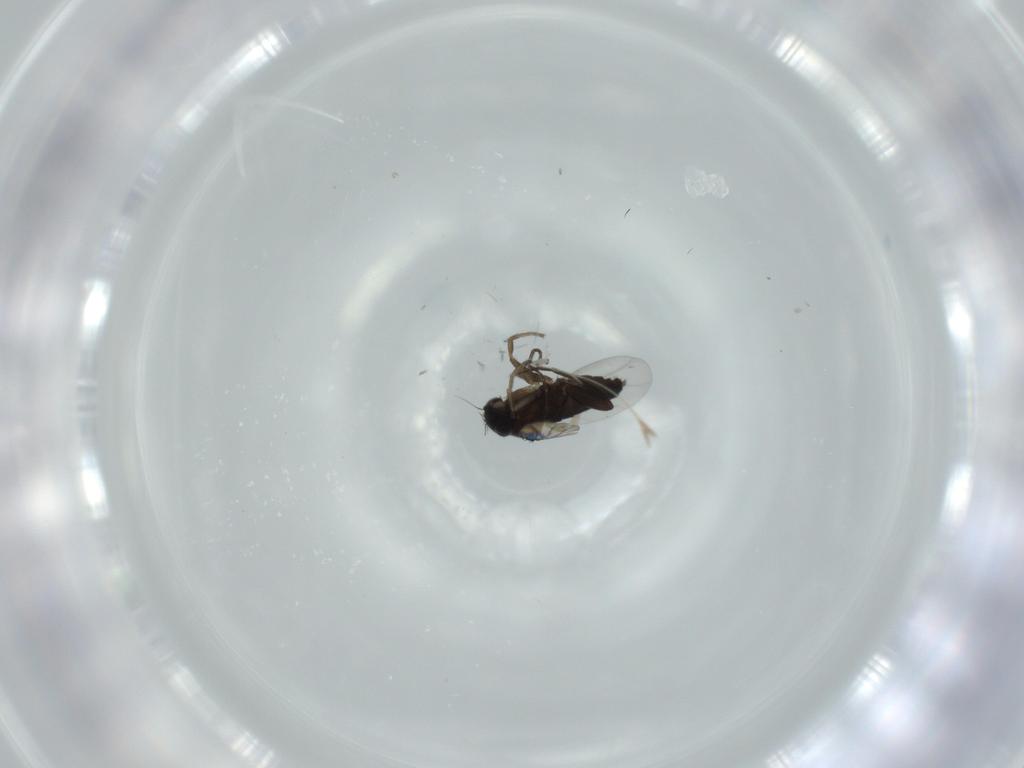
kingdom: Animalia
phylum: Arthropoda
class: Insecta
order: Diptera
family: Phoridae
